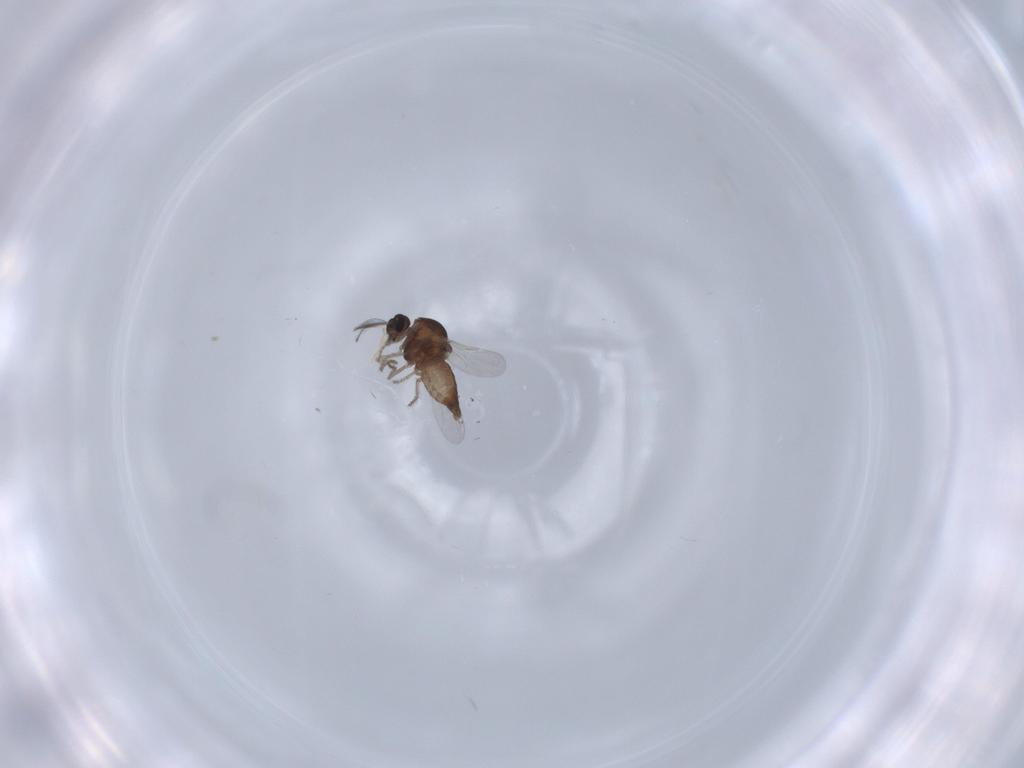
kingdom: Animalia
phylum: Arthropoda
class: Insecta
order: Diptera
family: Ceratopogonidae
